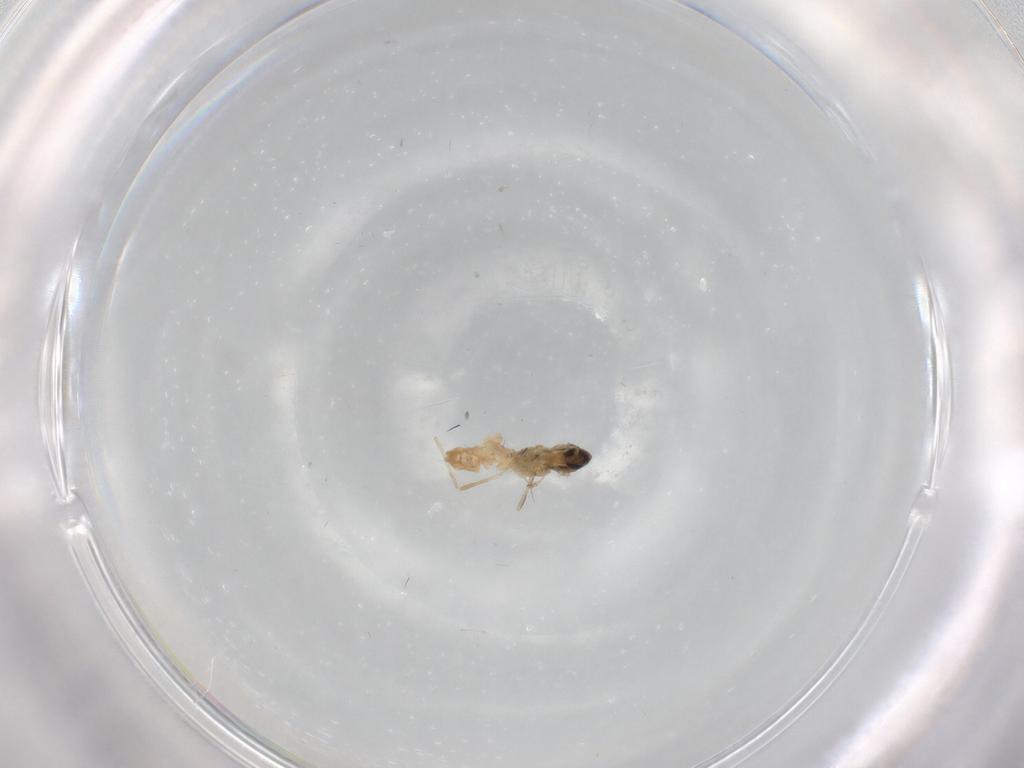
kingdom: Animalia
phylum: Arthropoda
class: Insecta
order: Diptera
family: Cecidomyiidae
